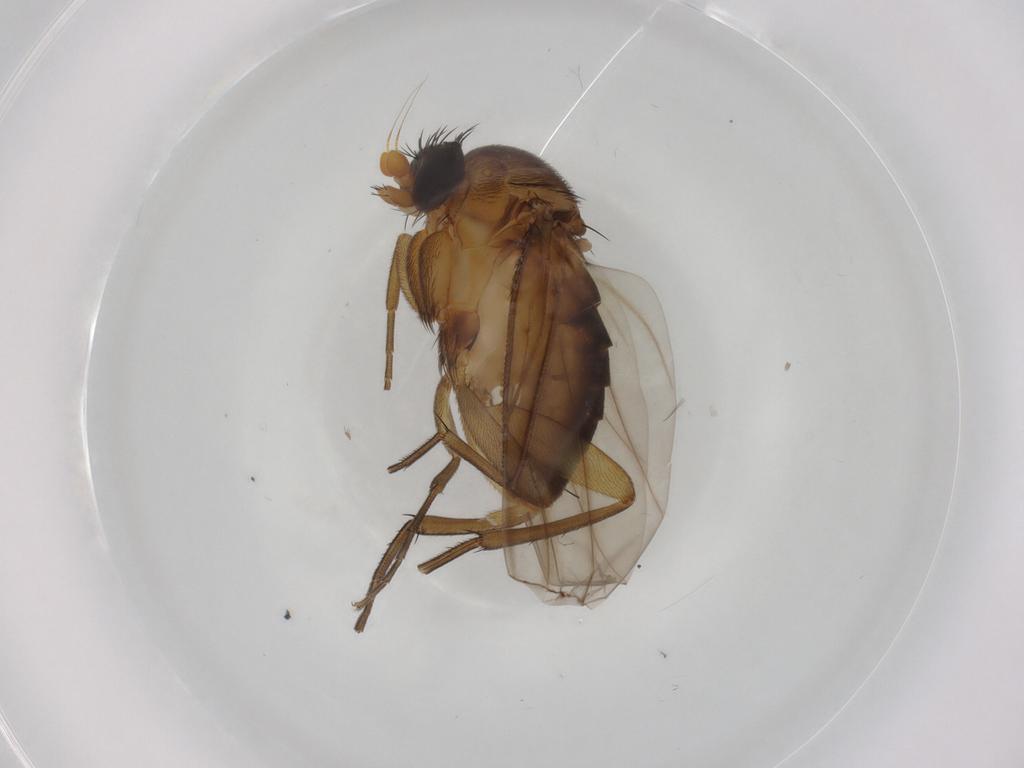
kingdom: Animalia
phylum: Arthropoda
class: Insecta
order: Diptera
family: Phoridae
